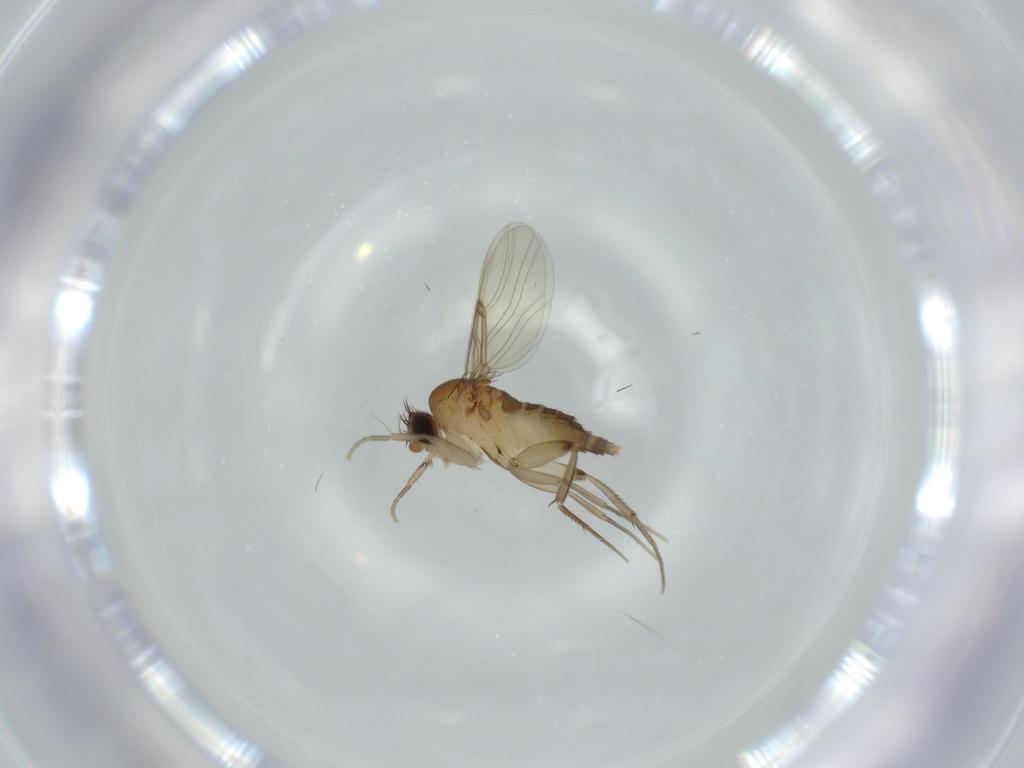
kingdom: Animalia
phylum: Arthropoda
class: Insecta
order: Diptera
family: Phoridae
